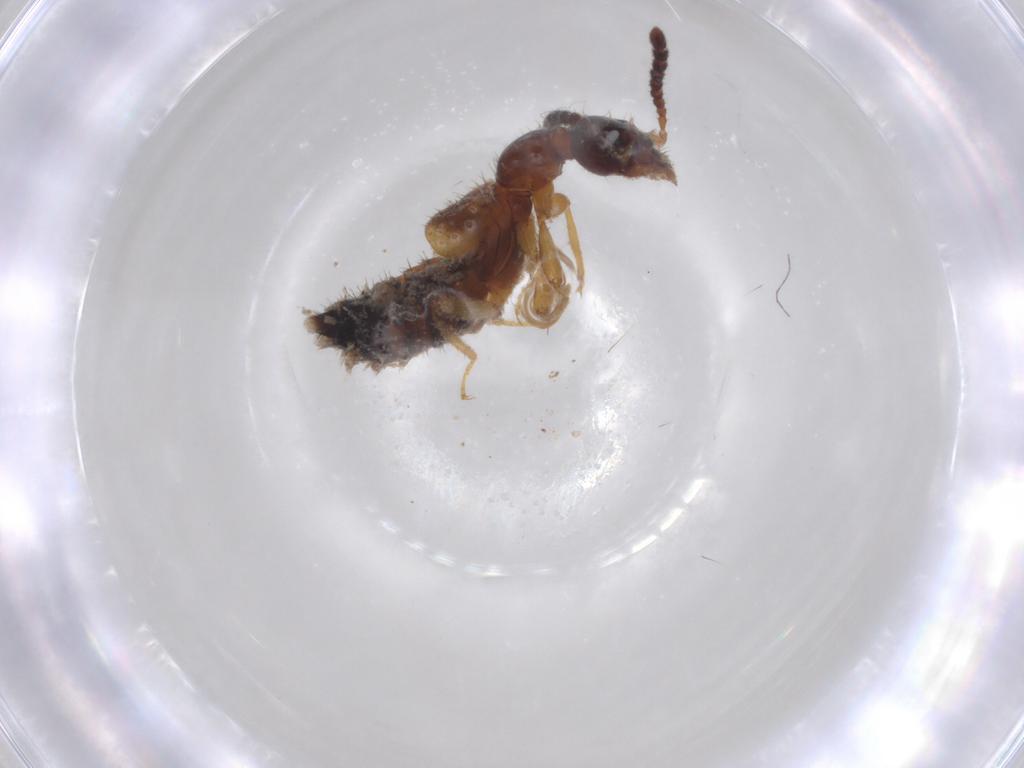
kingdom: Animalia
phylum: Arthropoda
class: Insecta
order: Coleoptera
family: Staphylinidae
